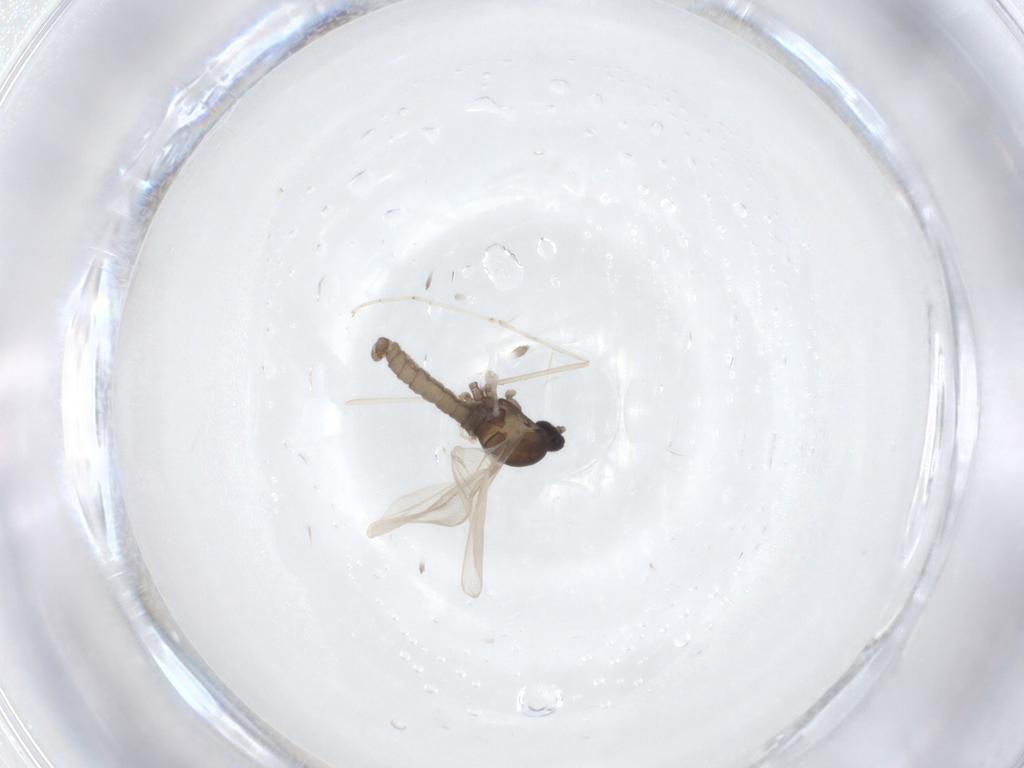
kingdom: Animalia
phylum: Arthropoda
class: Insecta
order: Diptera
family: Cecidomyiidae
